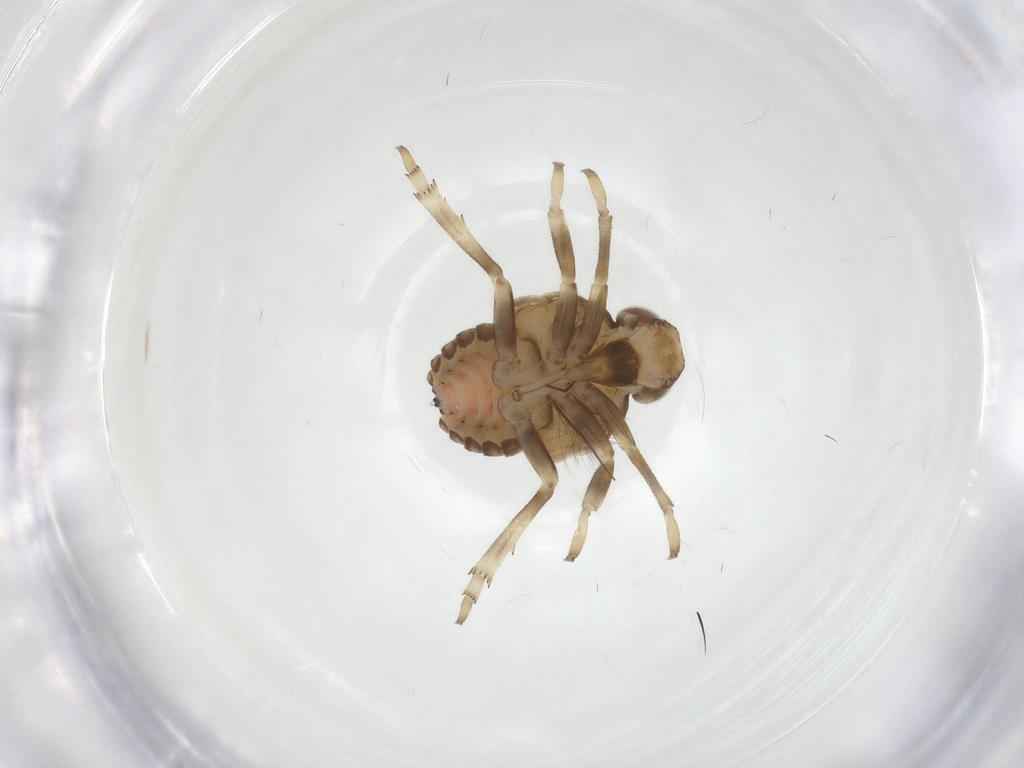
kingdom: Animalia
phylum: Arthropoda
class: Insecta
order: Hemiptera
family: Issidae
